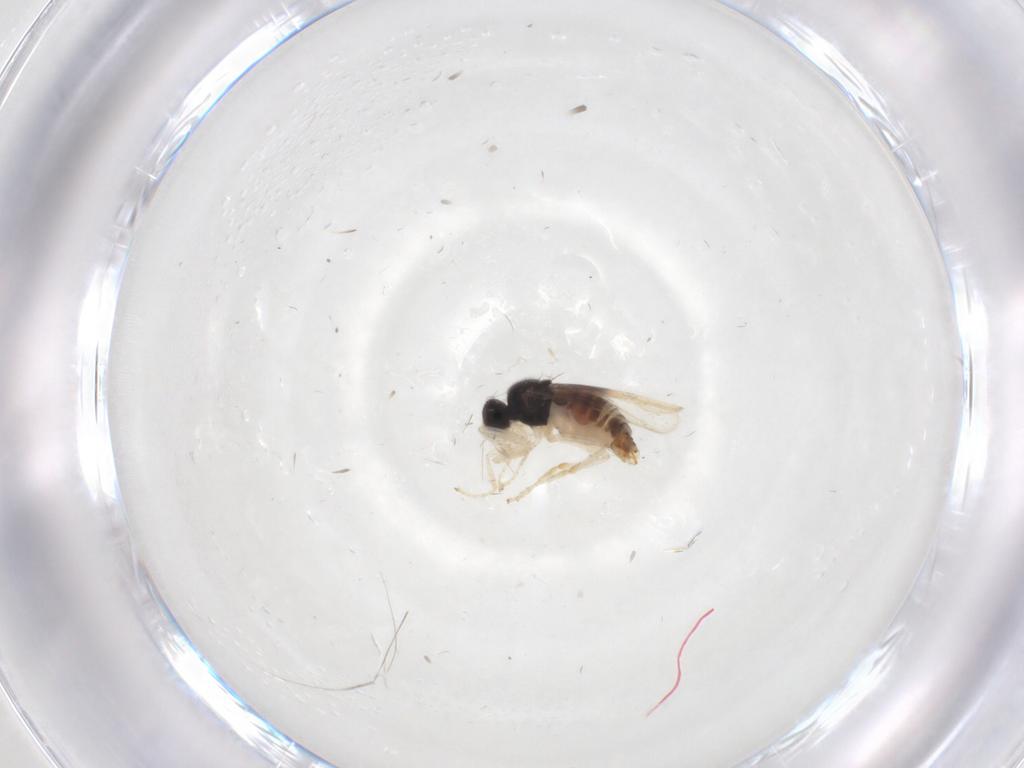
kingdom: Animalia
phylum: Arthropoda
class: Insecta
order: Diptera
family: Hybotidae
